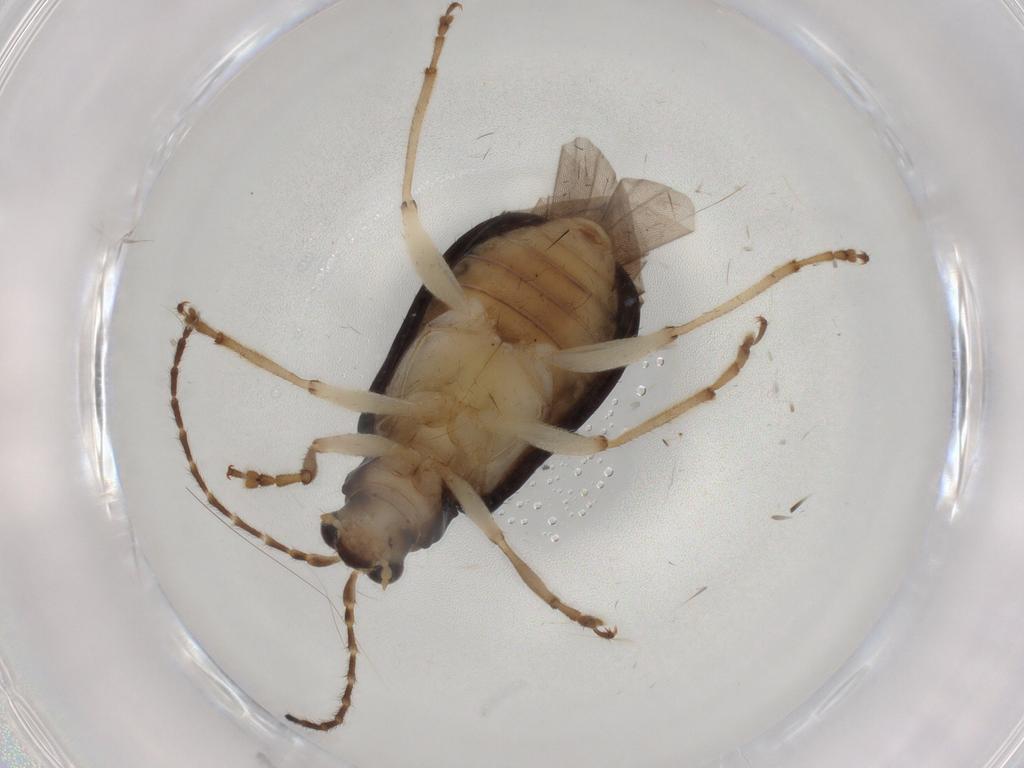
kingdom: Animalia
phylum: Arthropoda
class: Insecta
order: Coleoptera
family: Chrysomelidae
